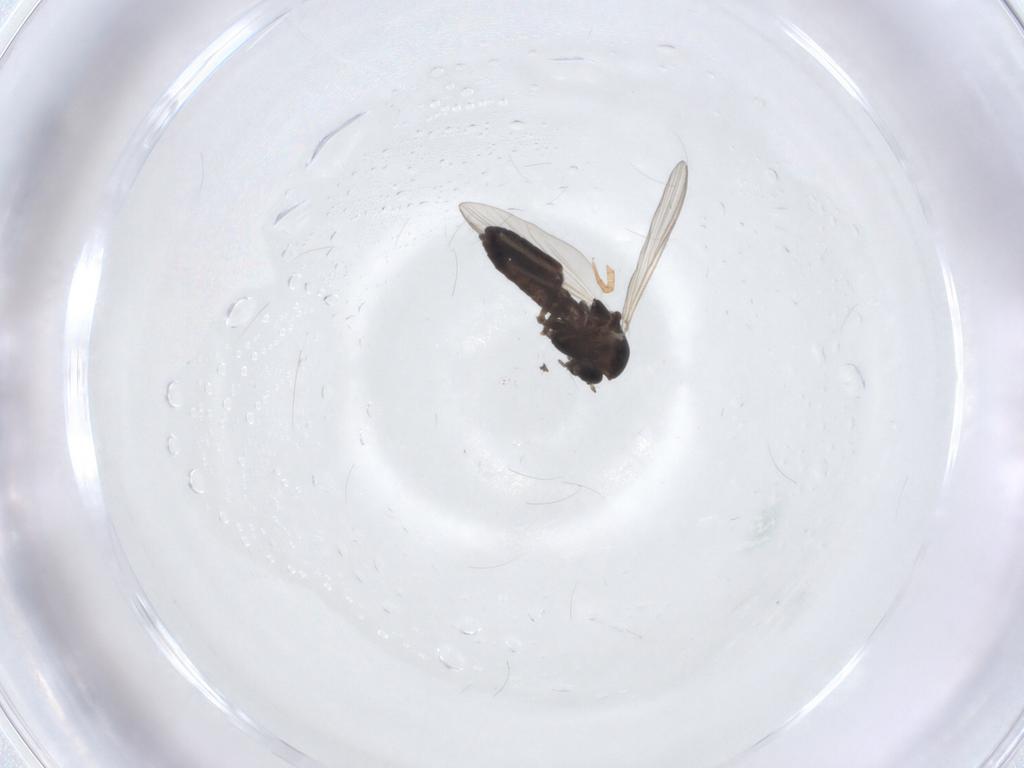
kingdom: Animalia
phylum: Arthropoda
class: Insecta
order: Diptera
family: Chironomidae
